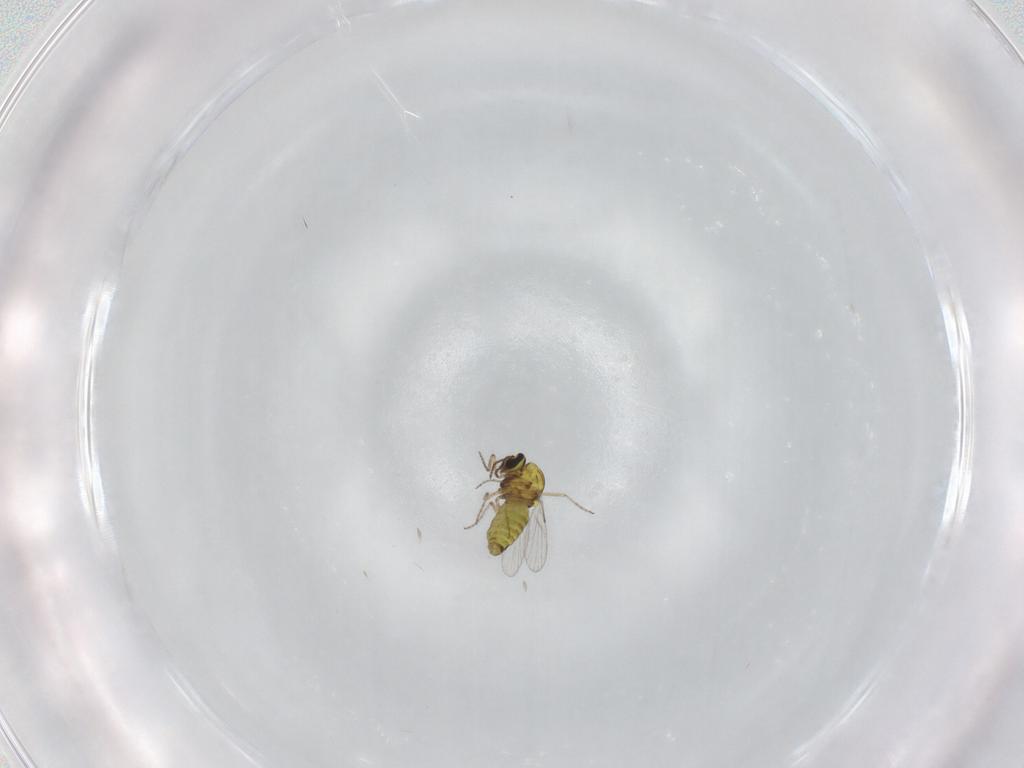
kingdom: Animalia
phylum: Arthropoda
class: Insecta
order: Diptera
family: Ceratopogonidae
